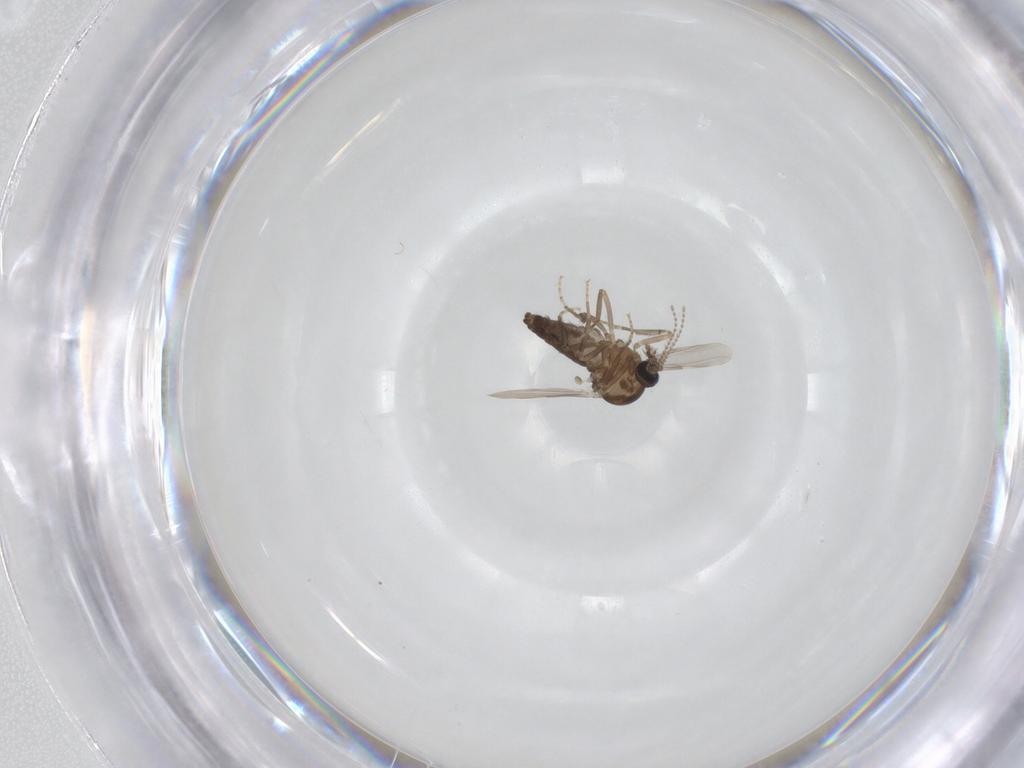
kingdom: Animalia
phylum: Arthropoda
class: Insecta
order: Diptera
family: Ceratopogonidae
